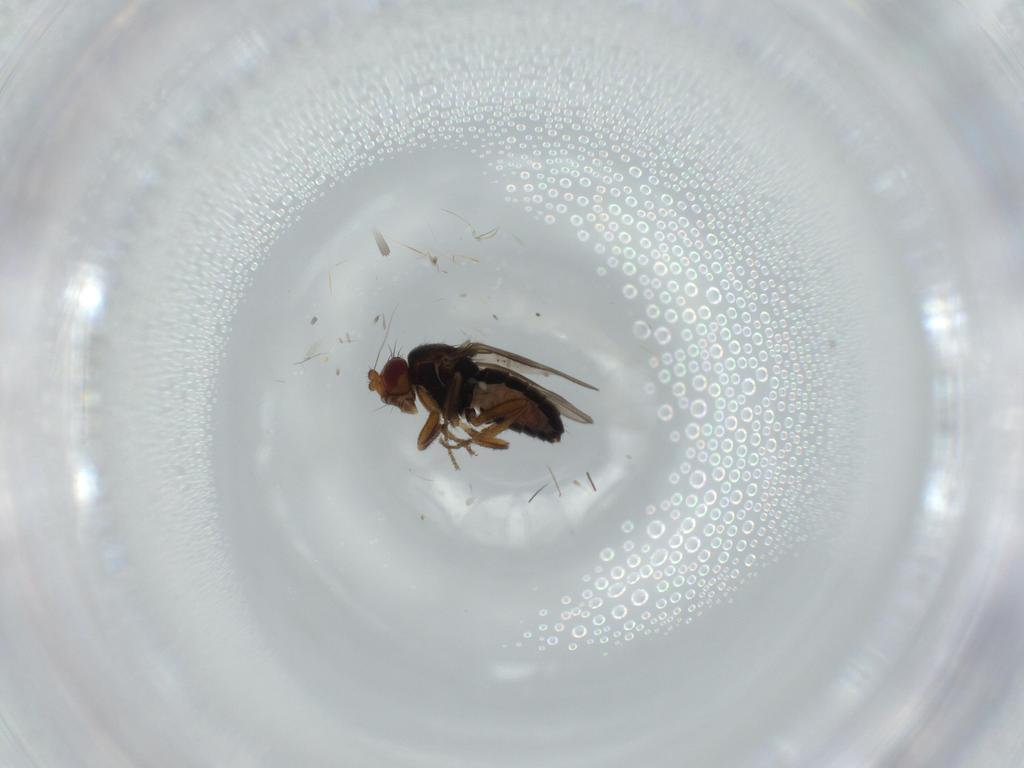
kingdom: Animalia
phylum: Arthropoda
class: Insecta
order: Diptera
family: Sphaeroceridae
